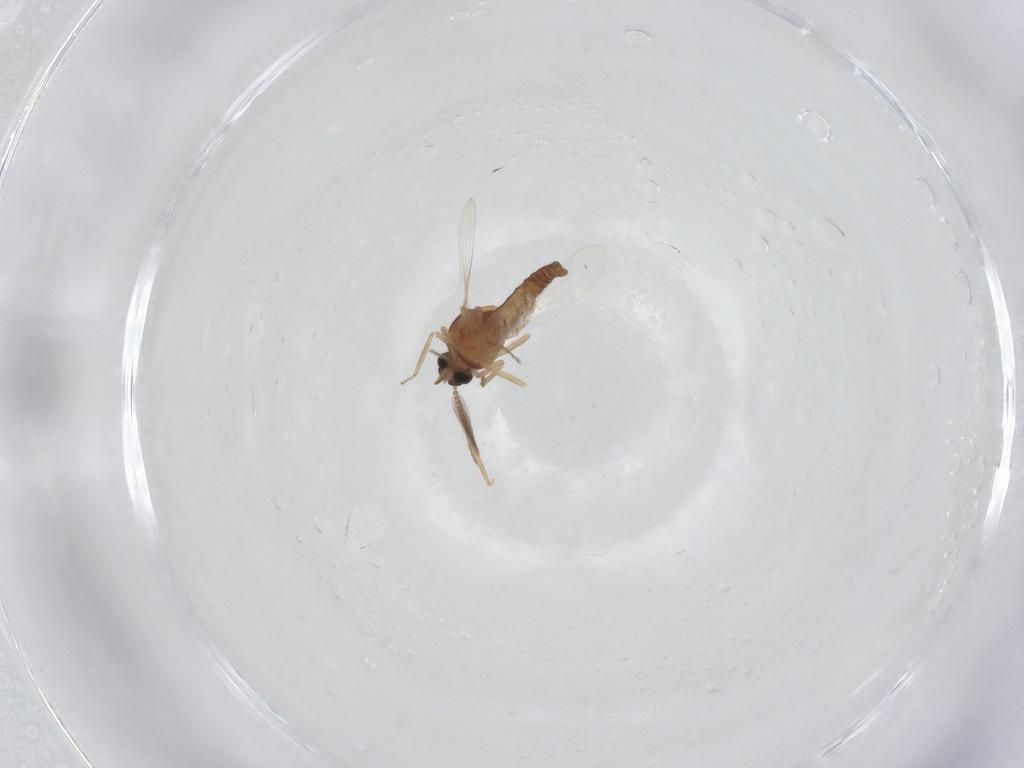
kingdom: Animalia
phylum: Arthropoda
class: Insecta
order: Diptera
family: Ceratopogonidae
